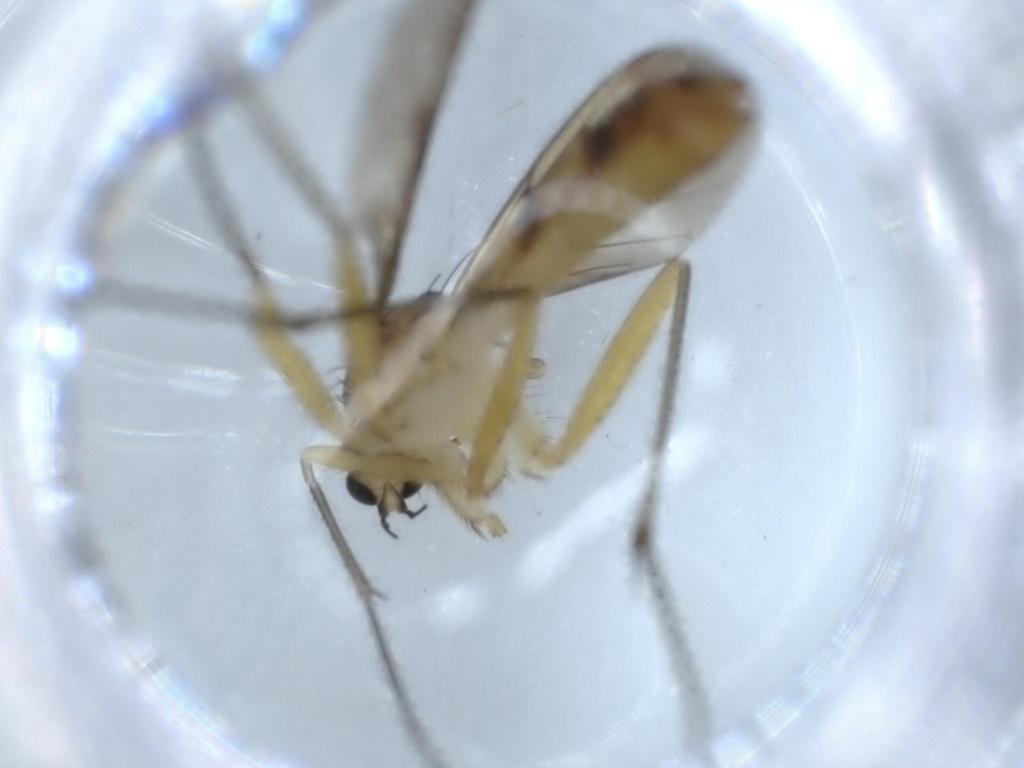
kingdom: Animalia
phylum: Arthropoda
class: Insecta
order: Diptera
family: Mycetophilidae
